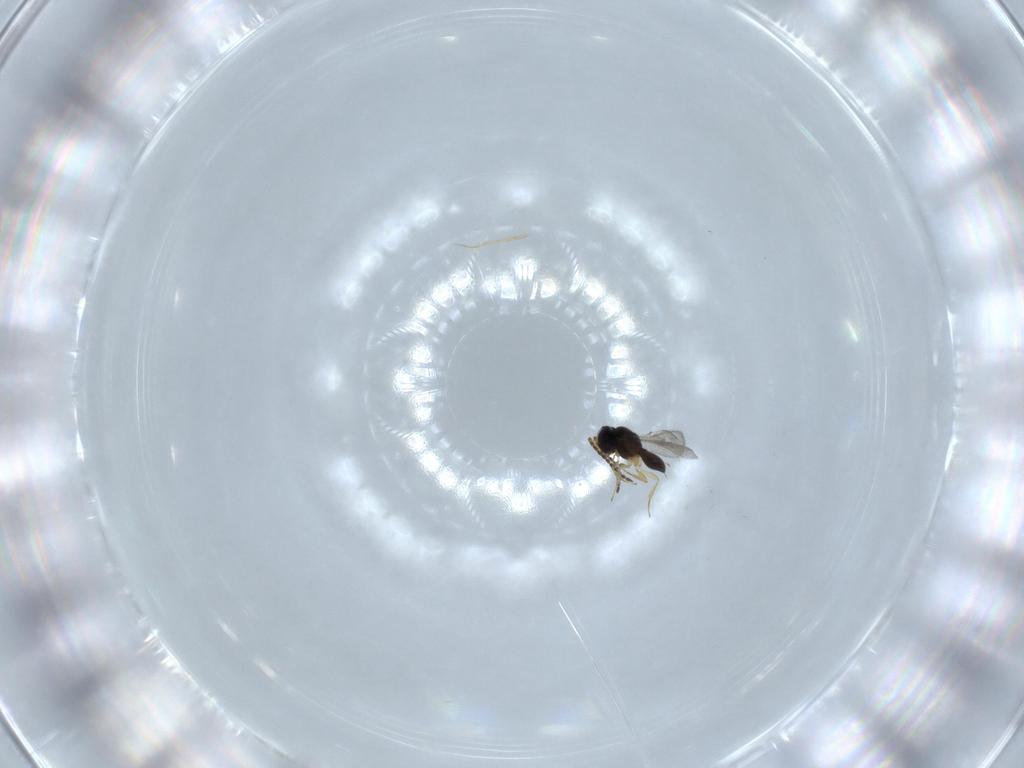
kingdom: Animalia
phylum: Arthropoda
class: Insecta
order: Hymenoptera
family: Scelionidae
